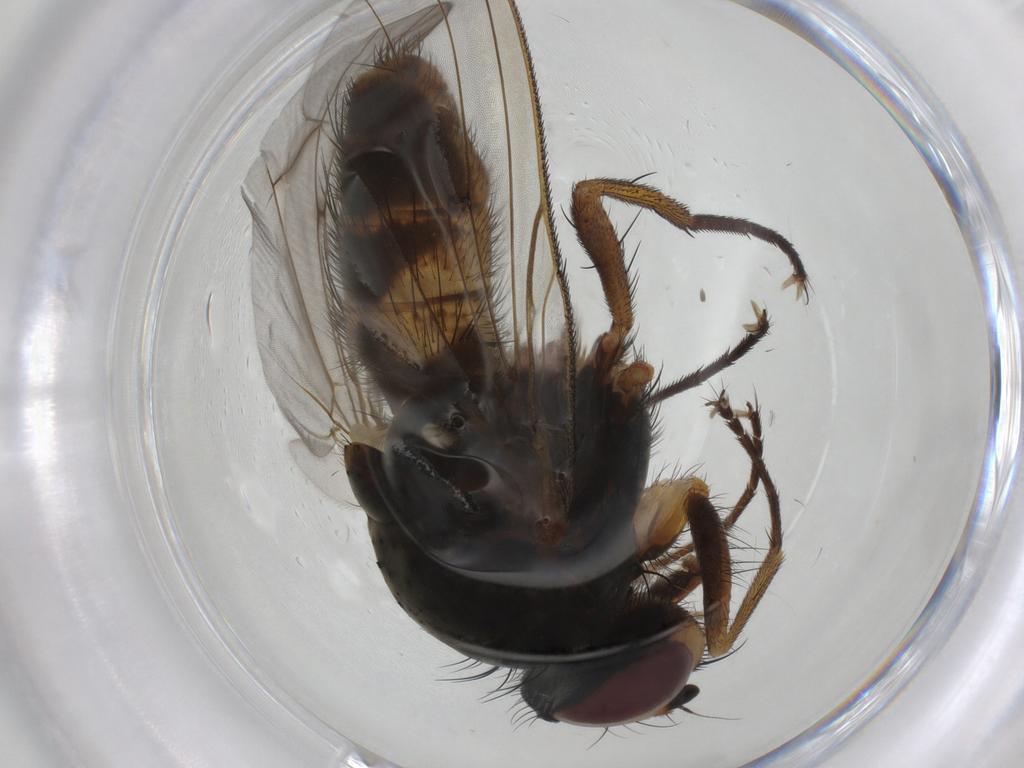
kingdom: Animalia
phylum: Arthropoda
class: Insecta
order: Diptera
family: Anthomyiidae
